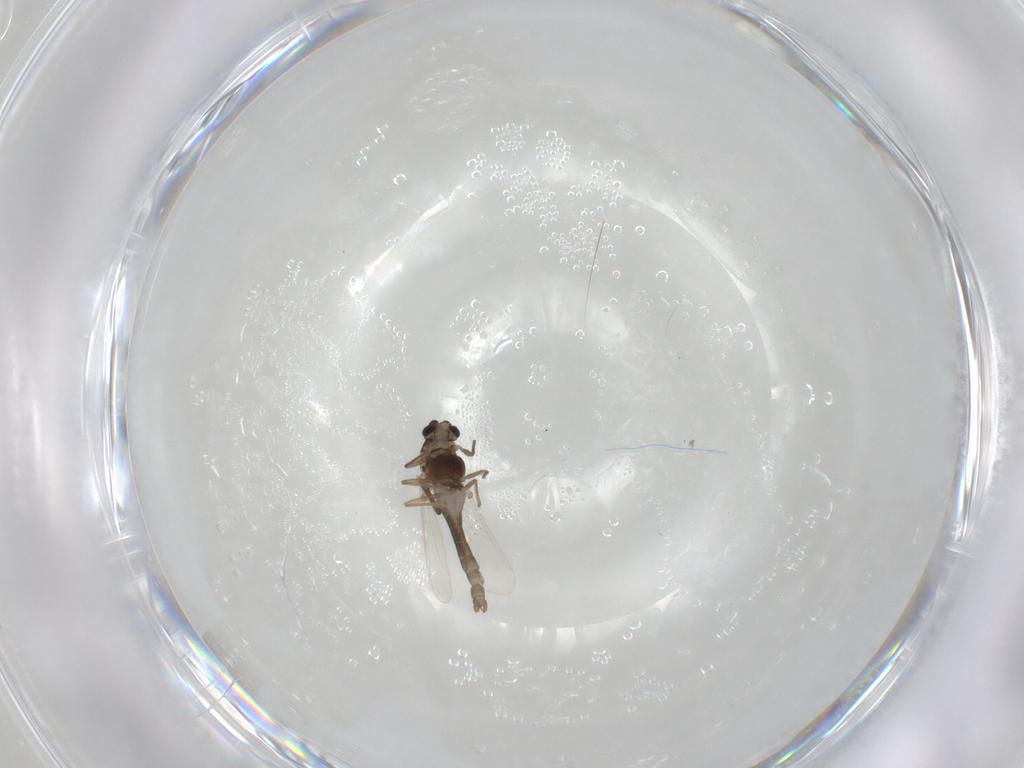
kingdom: Animalia
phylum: Arthropoda
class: Insecta
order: Diptera
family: Chironomidae
